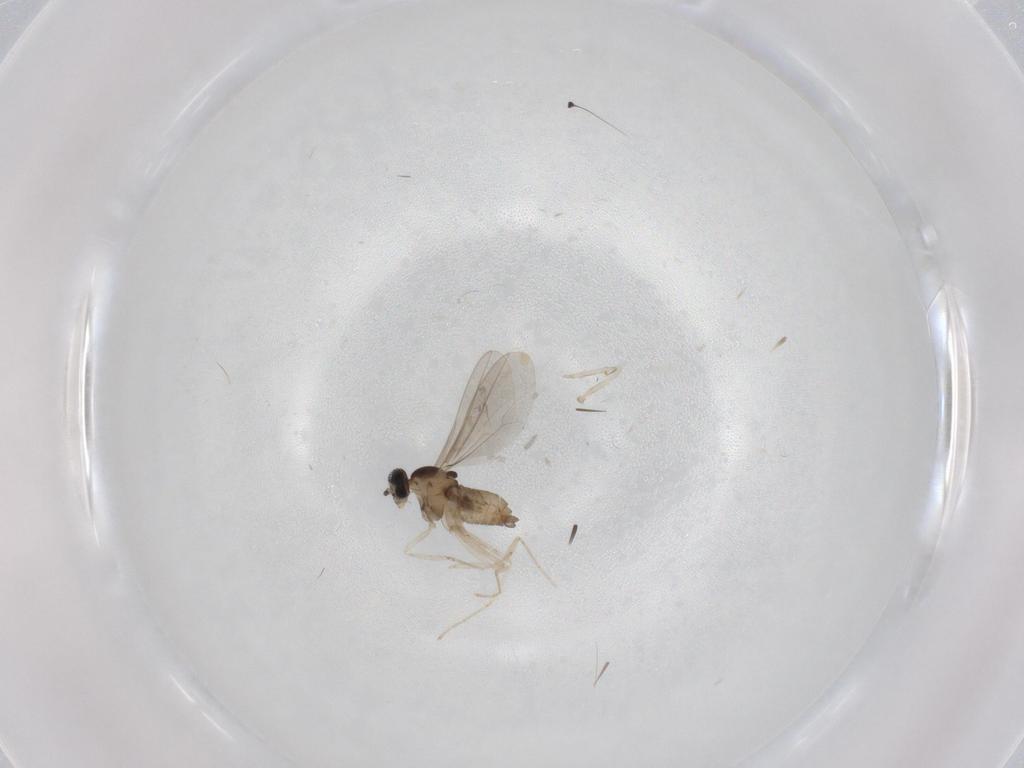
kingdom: Animalia
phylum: Arthropoda
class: Insecta
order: Diptera
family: Cecidomyiidae
